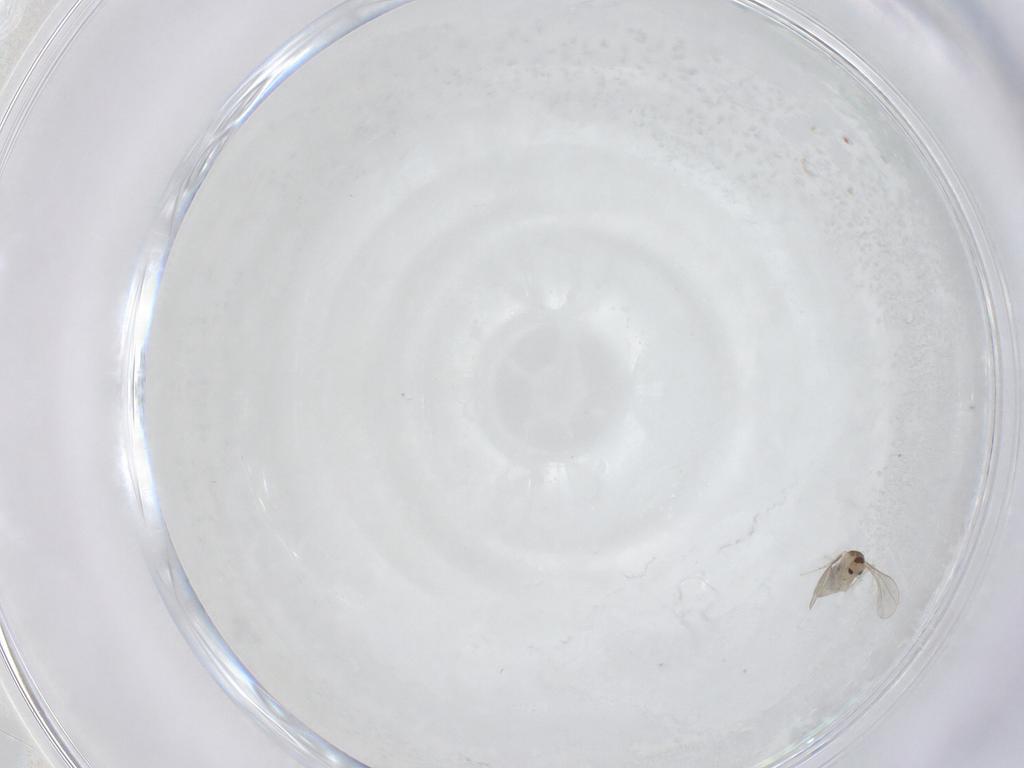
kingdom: Animalia
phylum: Arthropoda
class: Insecta
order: Diptera
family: Cecidomyiidae
